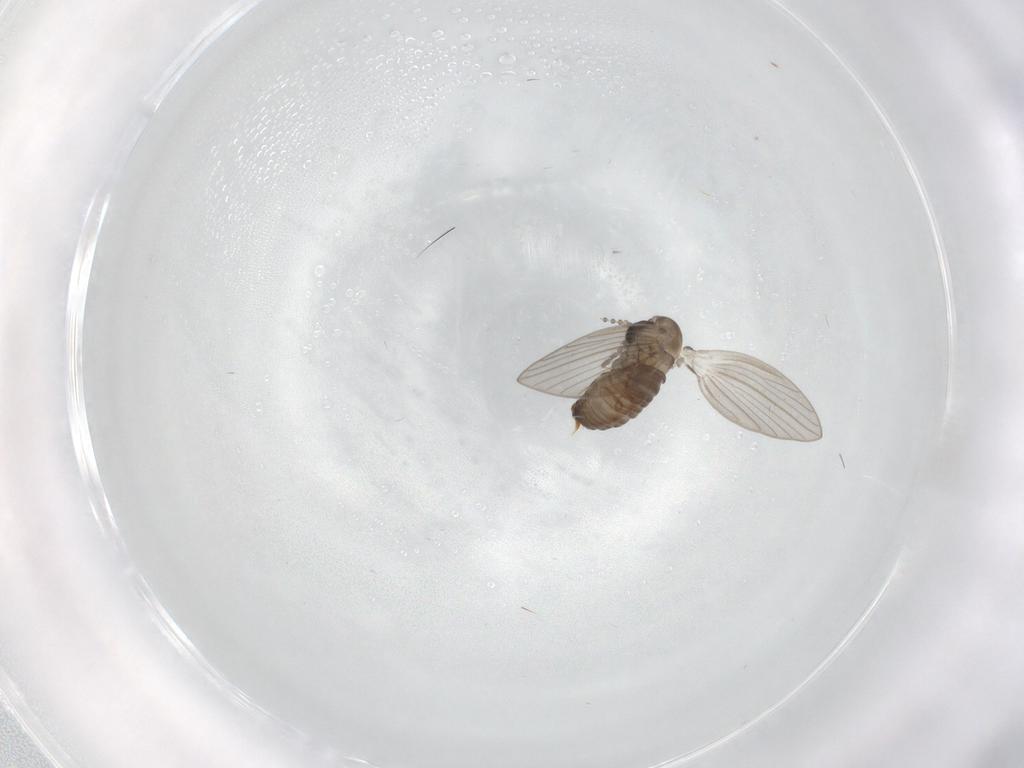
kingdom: Animalia
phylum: Arthropoda
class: Insecta
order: Diptera
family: Psychodidae
